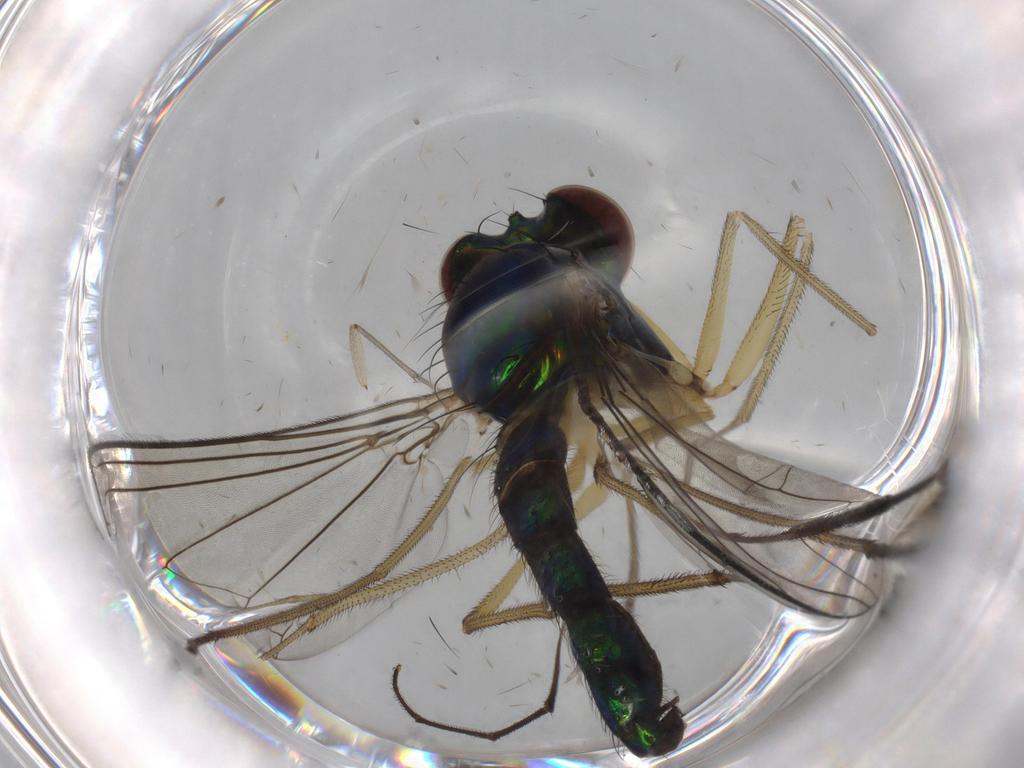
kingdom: Animalia
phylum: Arthropoda
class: Insecta
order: Diptera
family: Dolichopodidae
